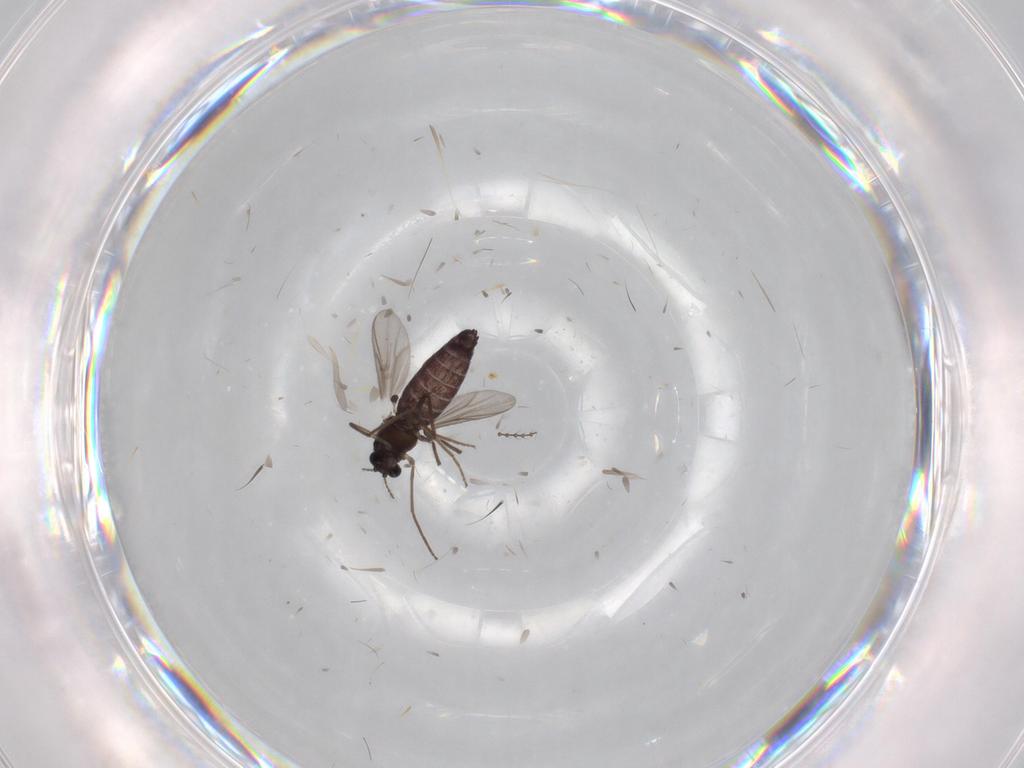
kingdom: Animalia
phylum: Arthropoda
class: Insecta
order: Diptera
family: Chironomidae
